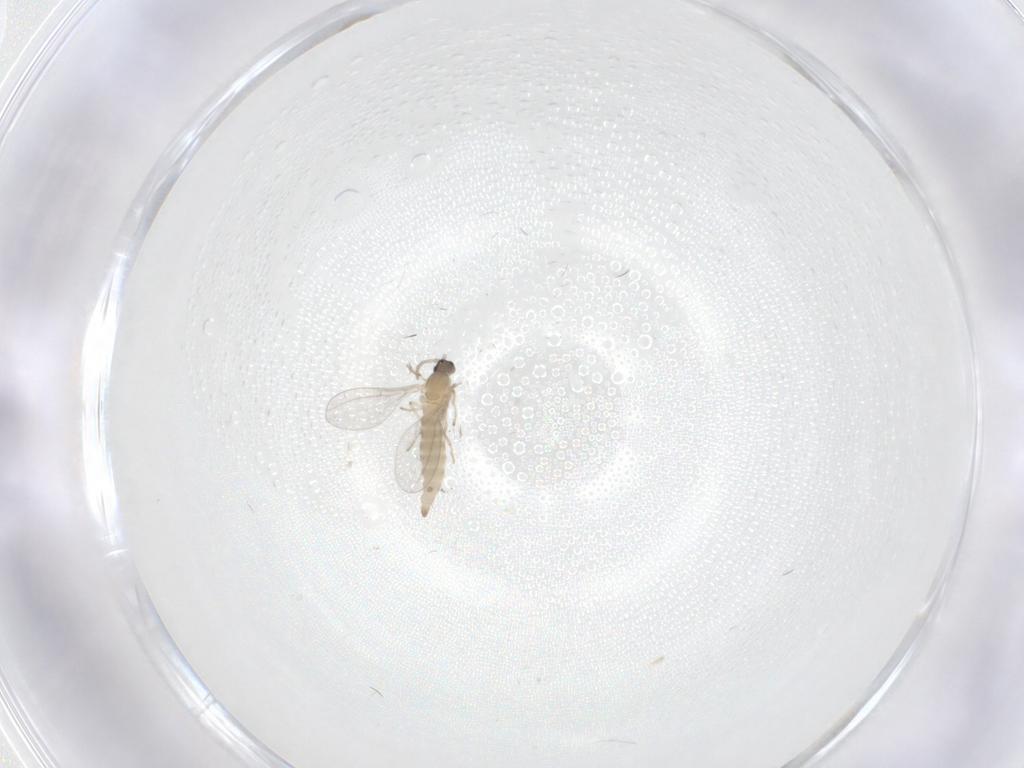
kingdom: Animalia
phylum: Arthropoda
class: Insecta
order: Diptera
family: Cecidomyiidae
